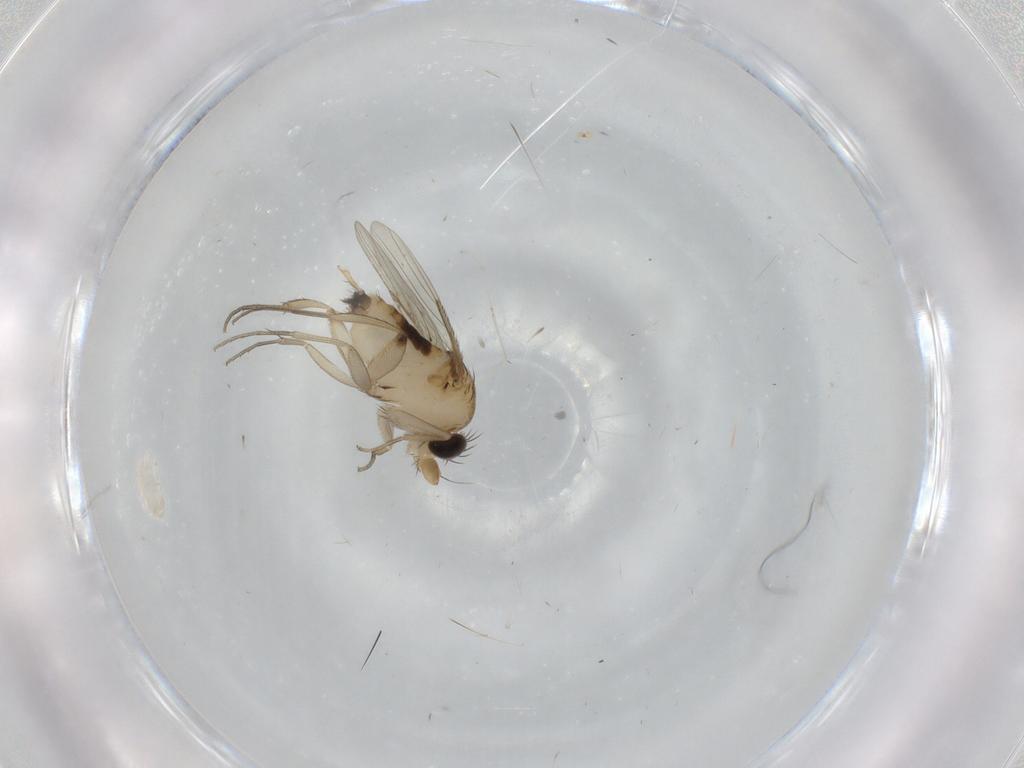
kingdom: Animalia
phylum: Arthropoda
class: Insecta
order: Diptera
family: Phoridae
